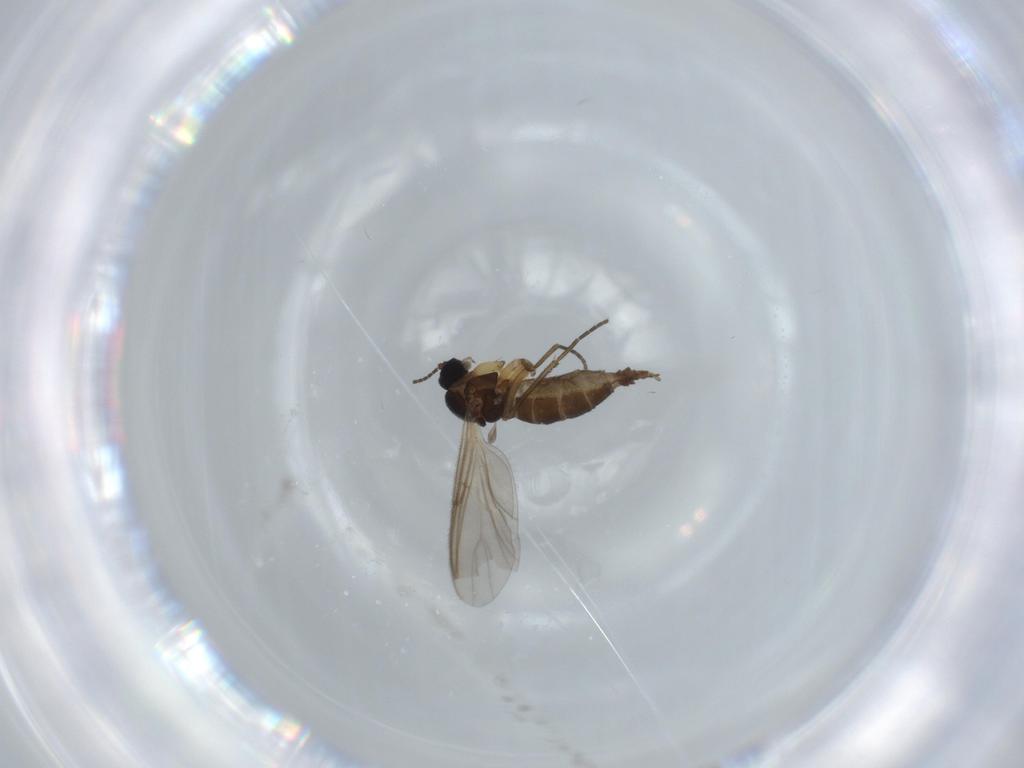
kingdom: Animalia
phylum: Arthropoda
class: Insecta
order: Diptera
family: Chironomidae
